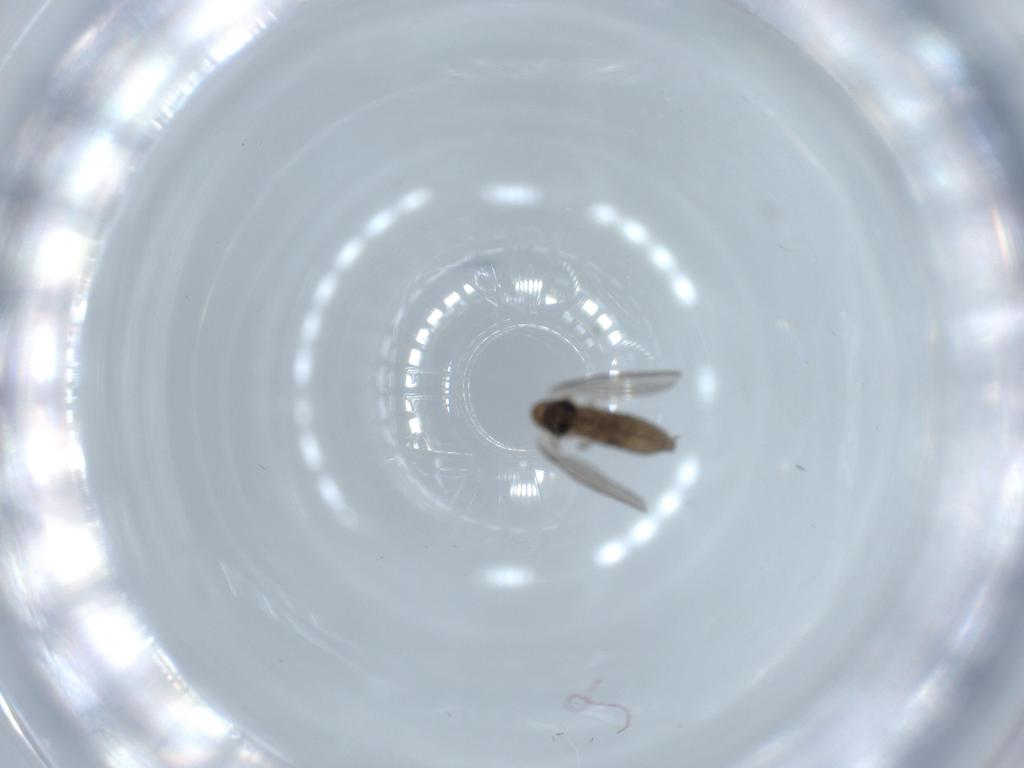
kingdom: Animalia
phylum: Arthropoda
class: Insecta
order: Diptera
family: Psychodidae
